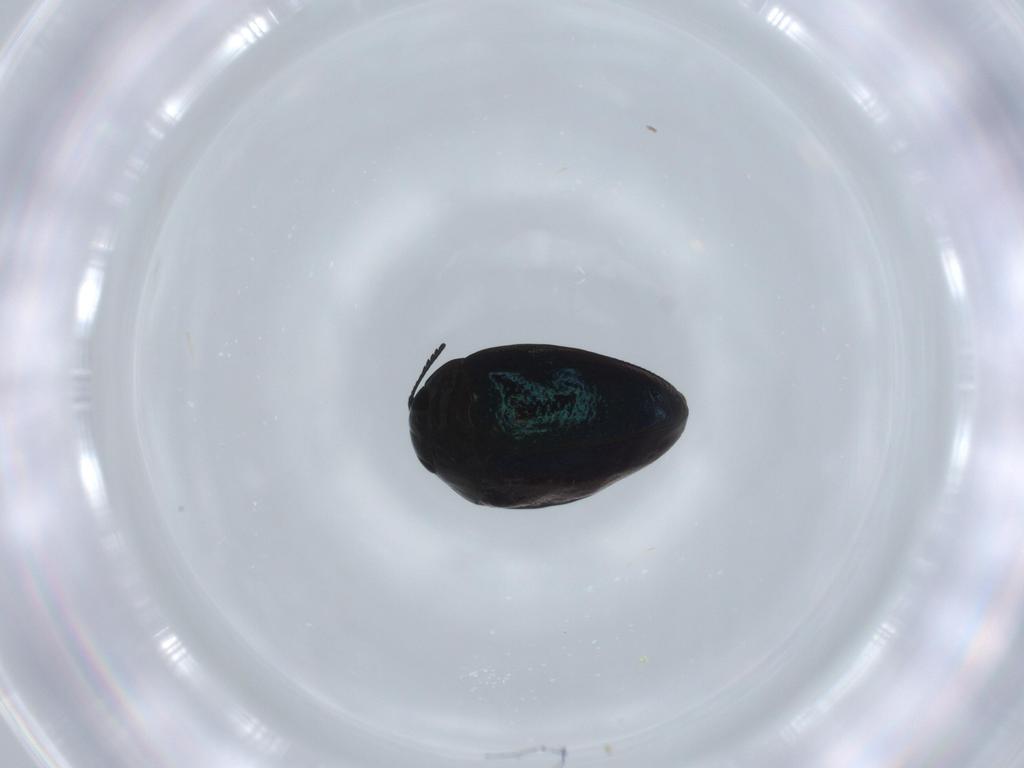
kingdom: Animalia
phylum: Arthropoda
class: Insecta
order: Coleoptera
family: Buprestidae
